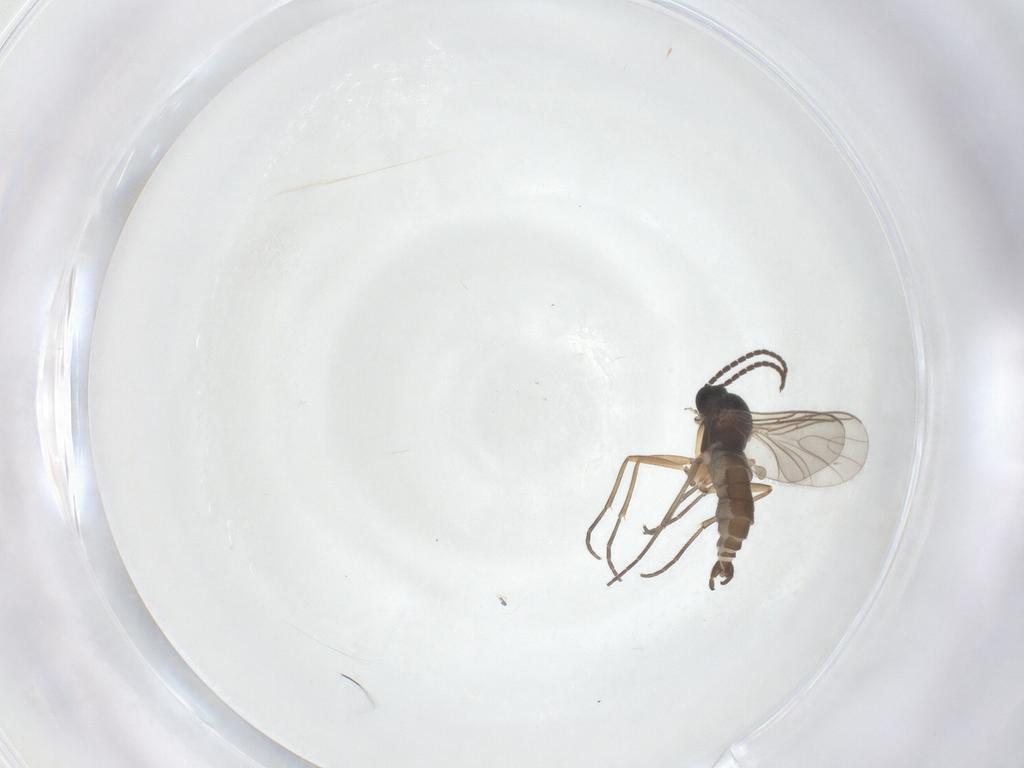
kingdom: Animalia
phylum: Arthropoda
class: Insecta
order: Diptera
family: Sciaridae
